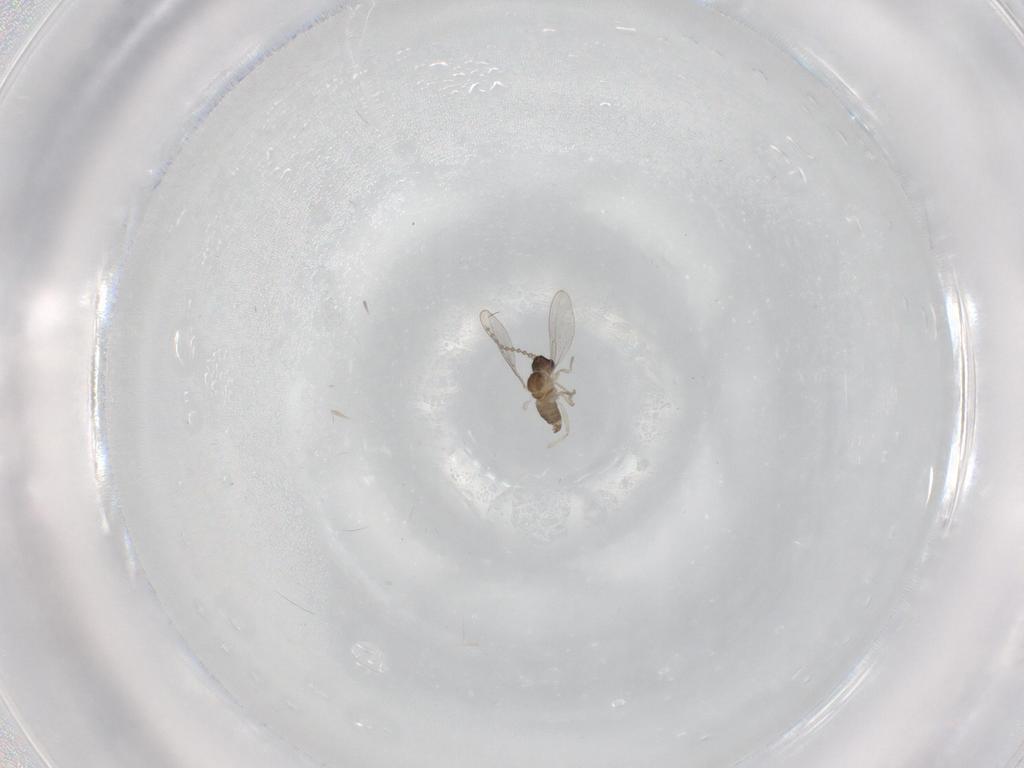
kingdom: Animalia
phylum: Arthropoda
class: Insecta
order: Diptera
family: Cecidomyiidae
